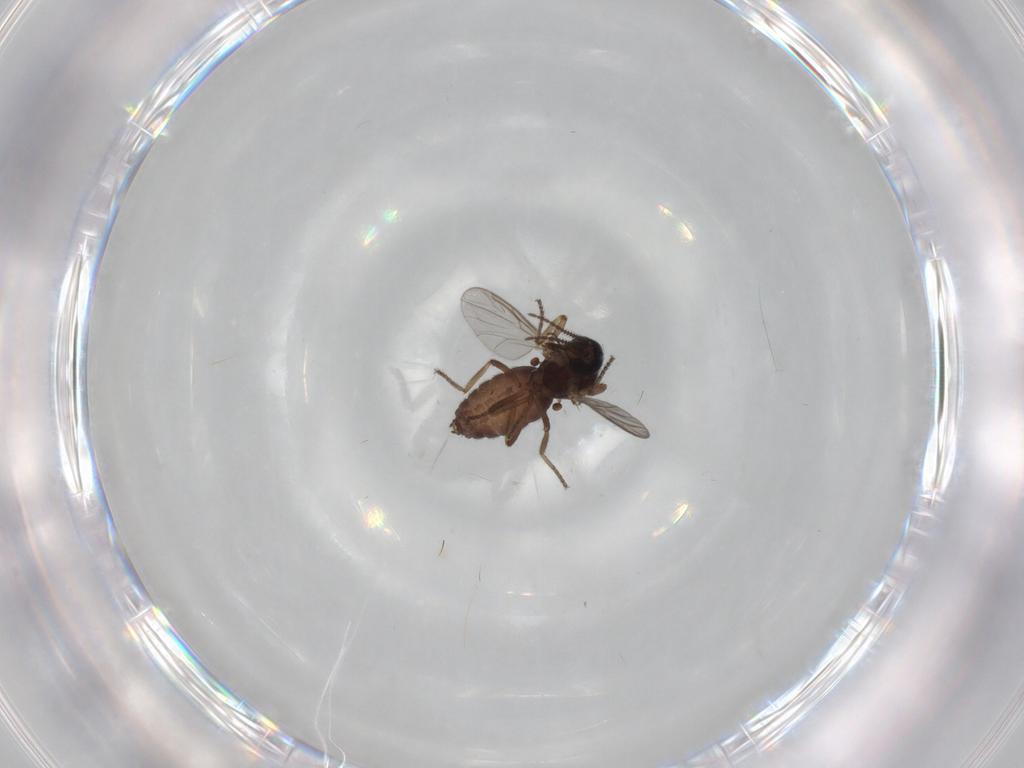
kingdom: Animalia
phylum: Arthropoda
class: Insecta
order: Diptera
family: Ceratopogonidae
